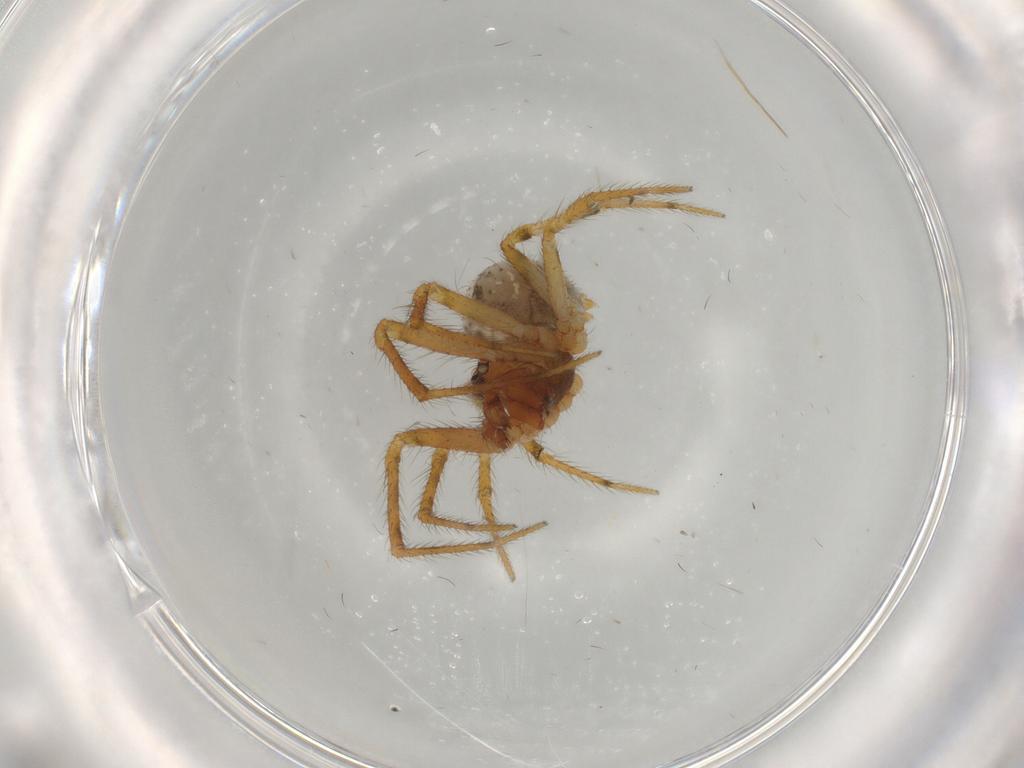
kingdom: Animalia
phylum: Arthropoda
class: Arachnida
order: Araneae
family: Theridiidae
